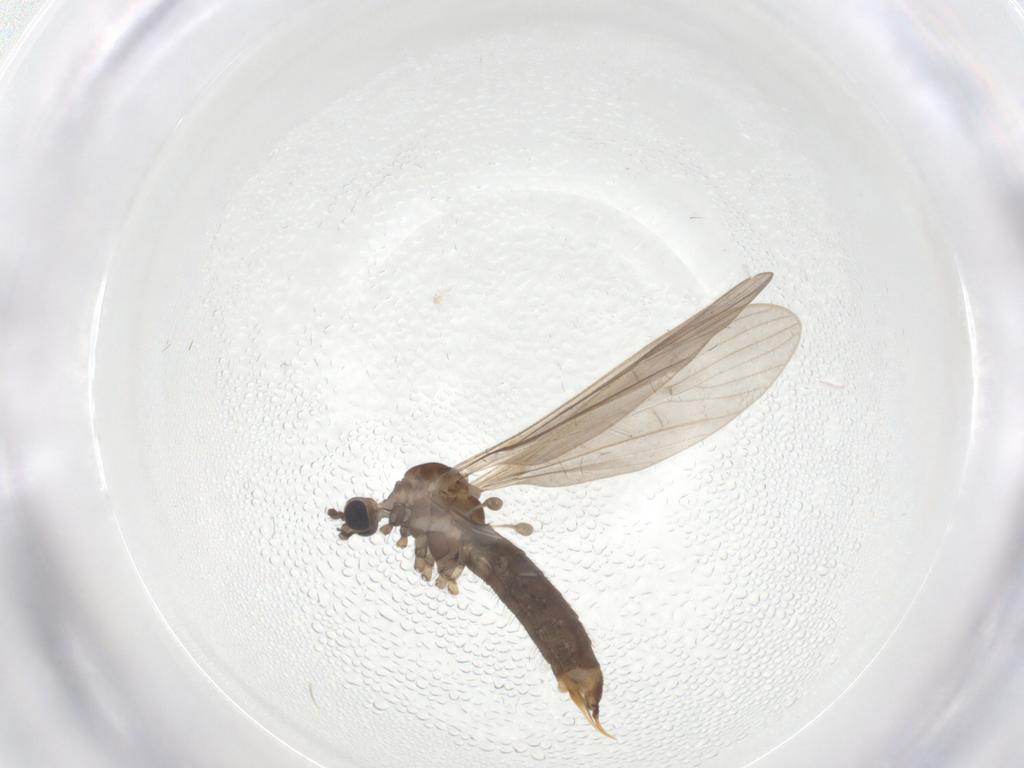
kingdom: Animalia
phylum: Arthropoda
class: Insecta
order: Diptera
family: Limoniidae
